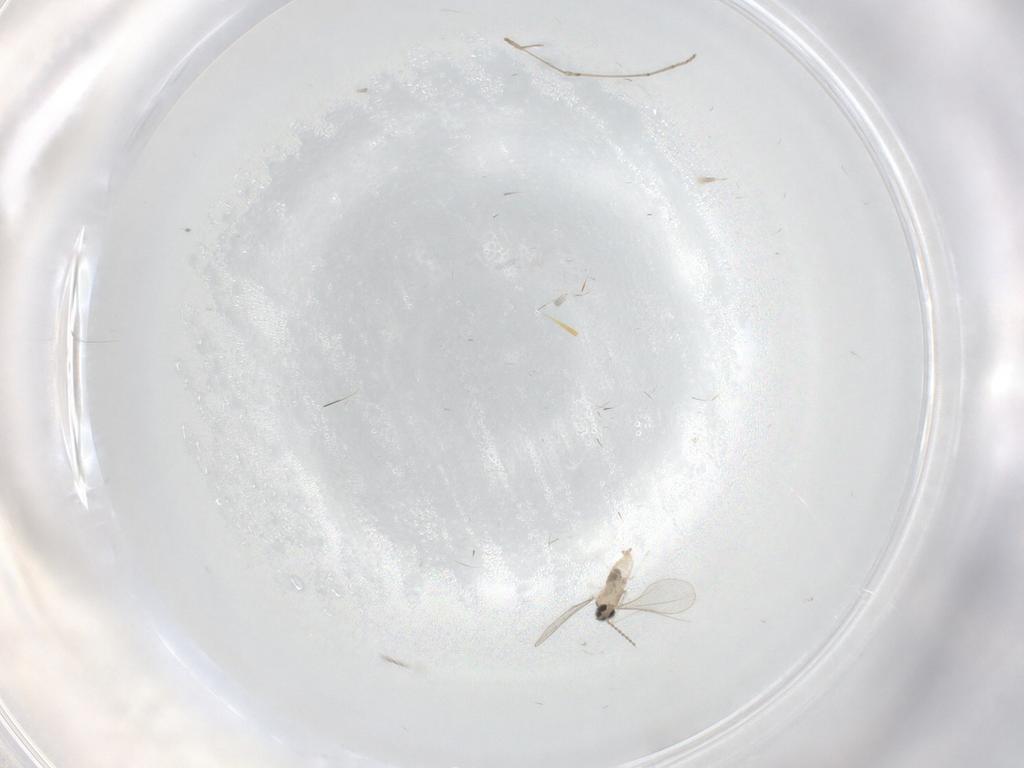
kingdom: Animalia
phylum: Arthropoda
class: Insecta
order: Diptera
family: Cecidomyiidae
